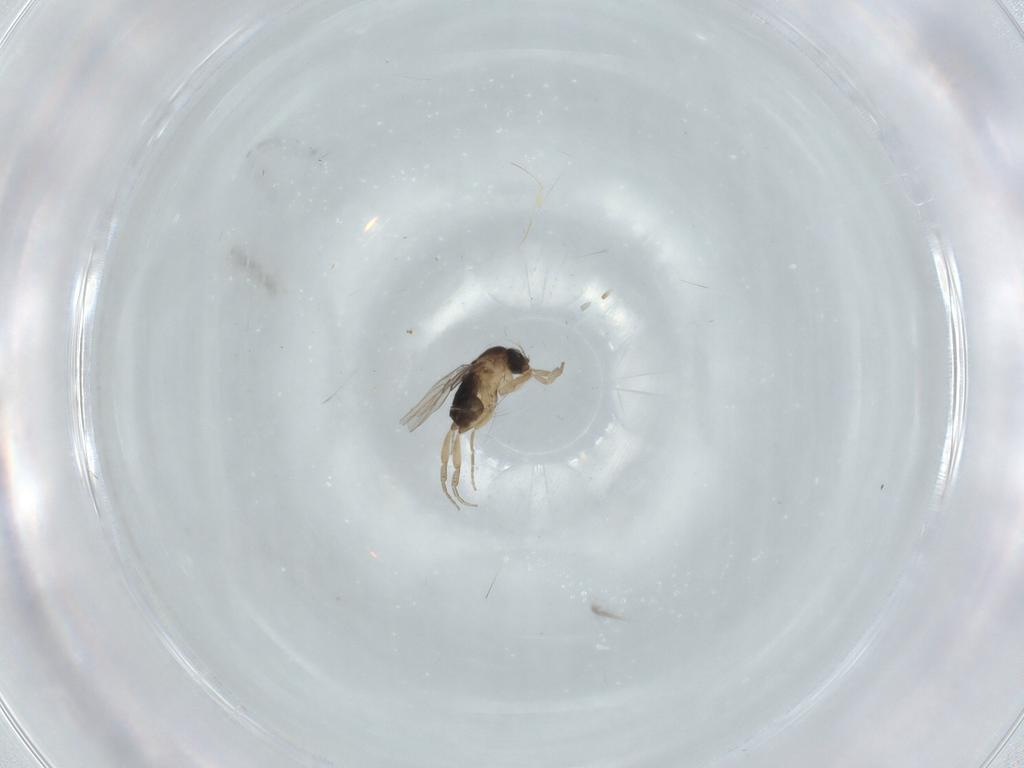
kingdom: Animalia
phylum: Arthropoda
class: Insecta
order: Diptera
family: Phoridae
